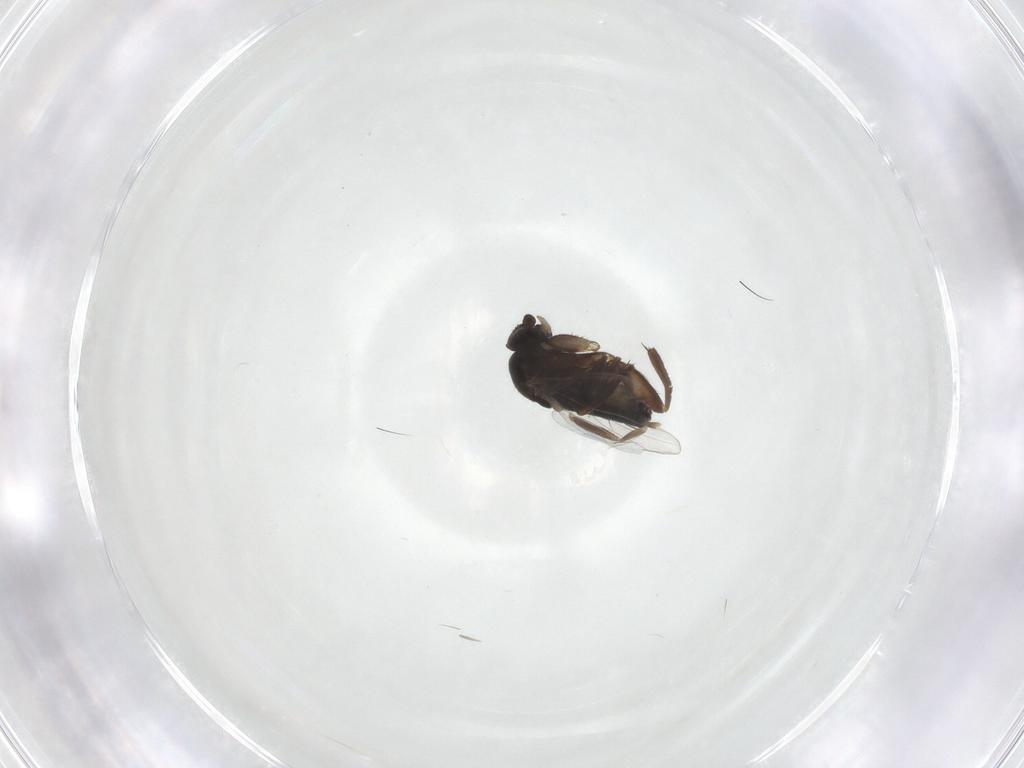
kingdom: Animalia
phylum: Arthropoda
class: Insecta
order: Diptera
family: Phoridae
